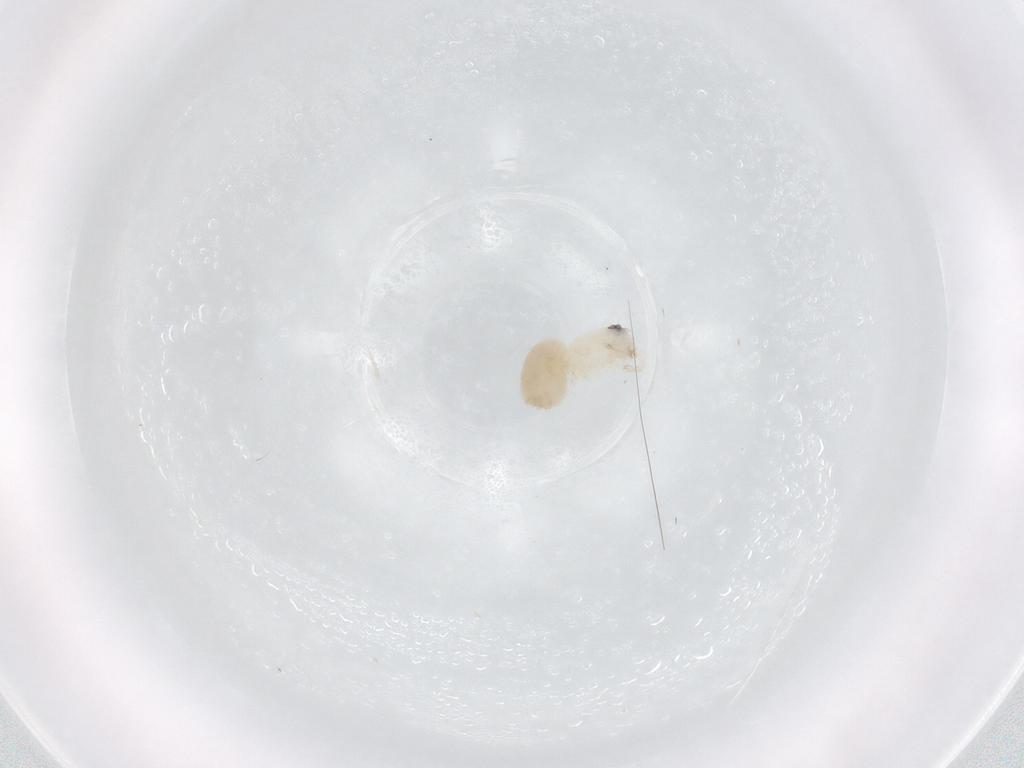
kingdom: Animalia
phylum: Arthropoda
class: Arachnida
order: Araneae
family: Dictynidae
